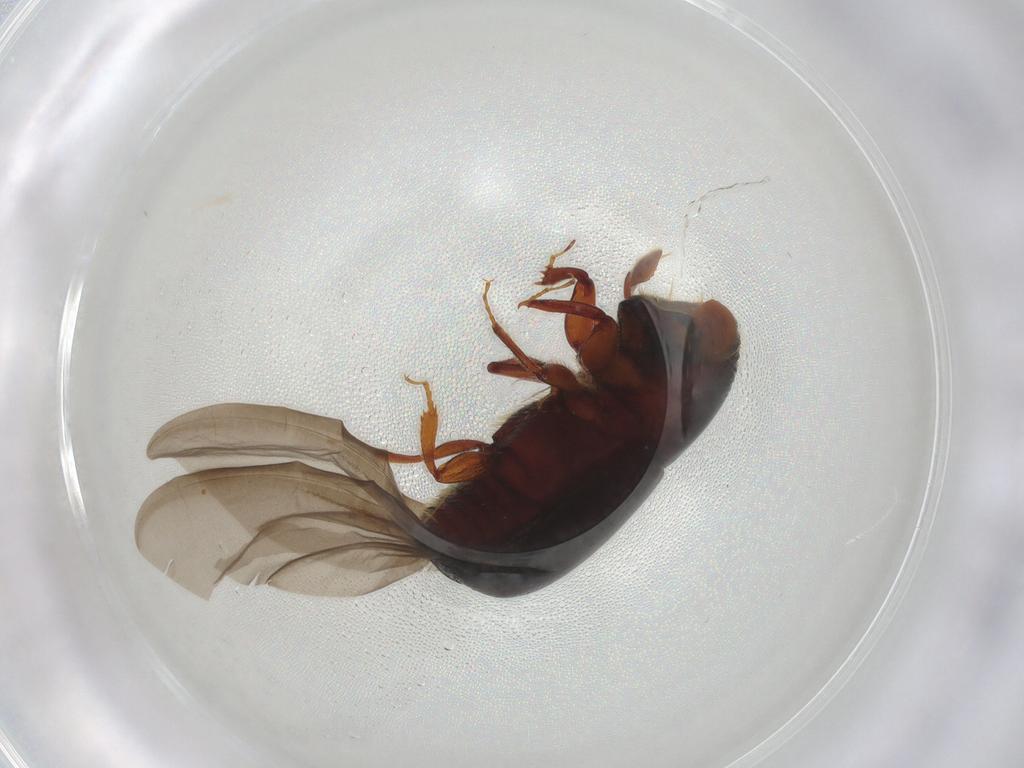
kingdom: Animalia
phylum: Arthropoda
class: Insecta
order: Coleoptera
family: Curculionidae
